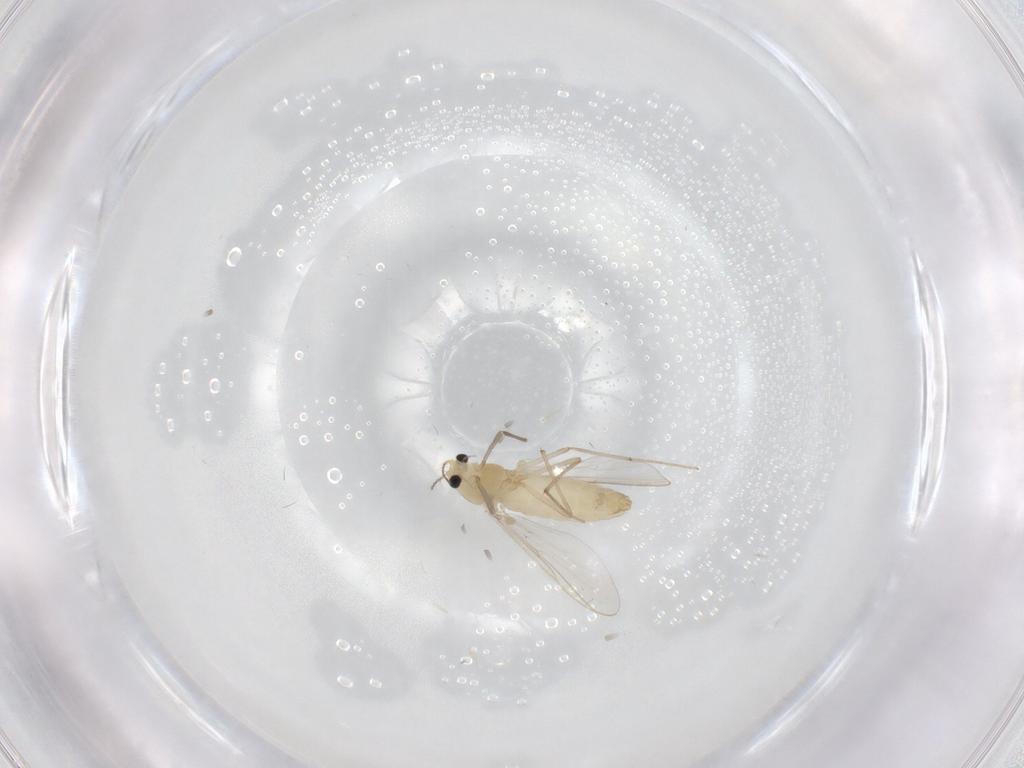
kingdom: Animalia
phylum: Arthropoda
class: Insecta
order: Diptera
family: Chironomidae
